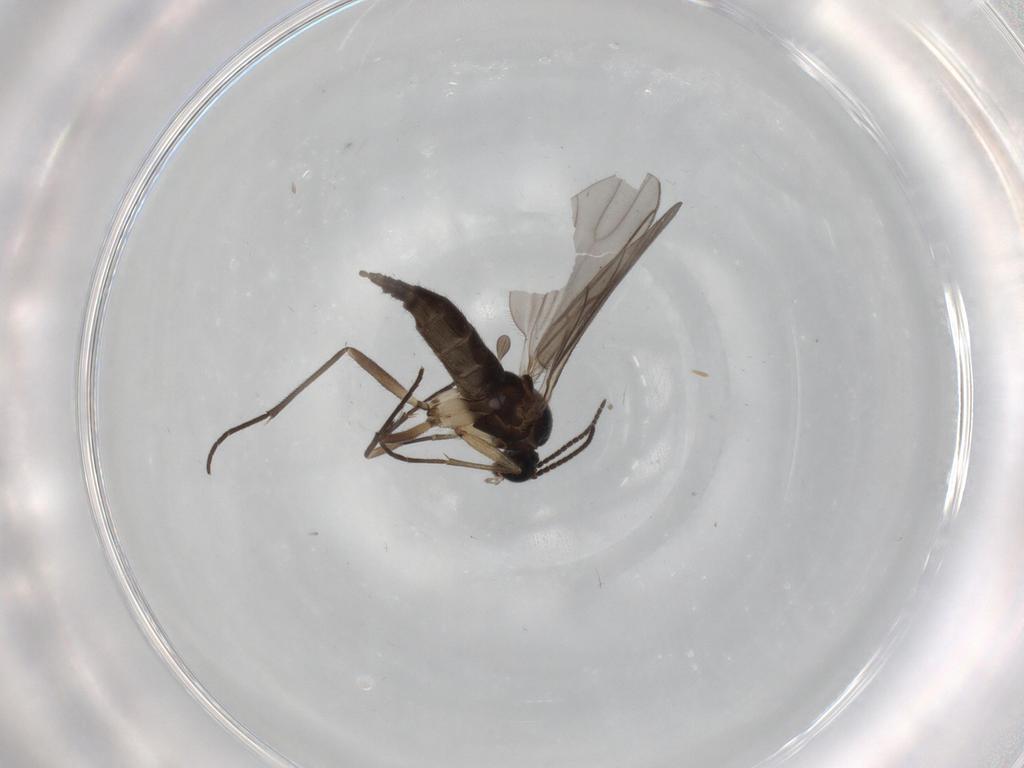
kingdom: Animalia
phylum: Arthropoda
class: Insecta
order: Diptera
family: Sciaridae
